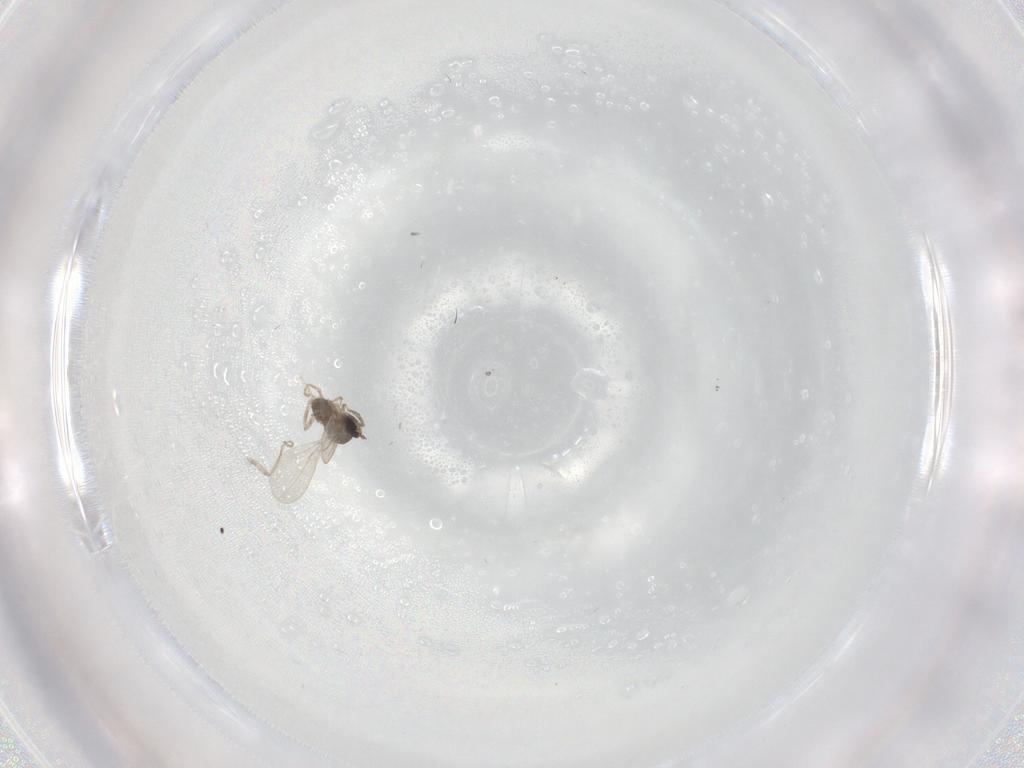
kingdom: Animalia
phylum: Arthropoda
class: Insecta
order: Diptera
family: Cecidomyiidae
